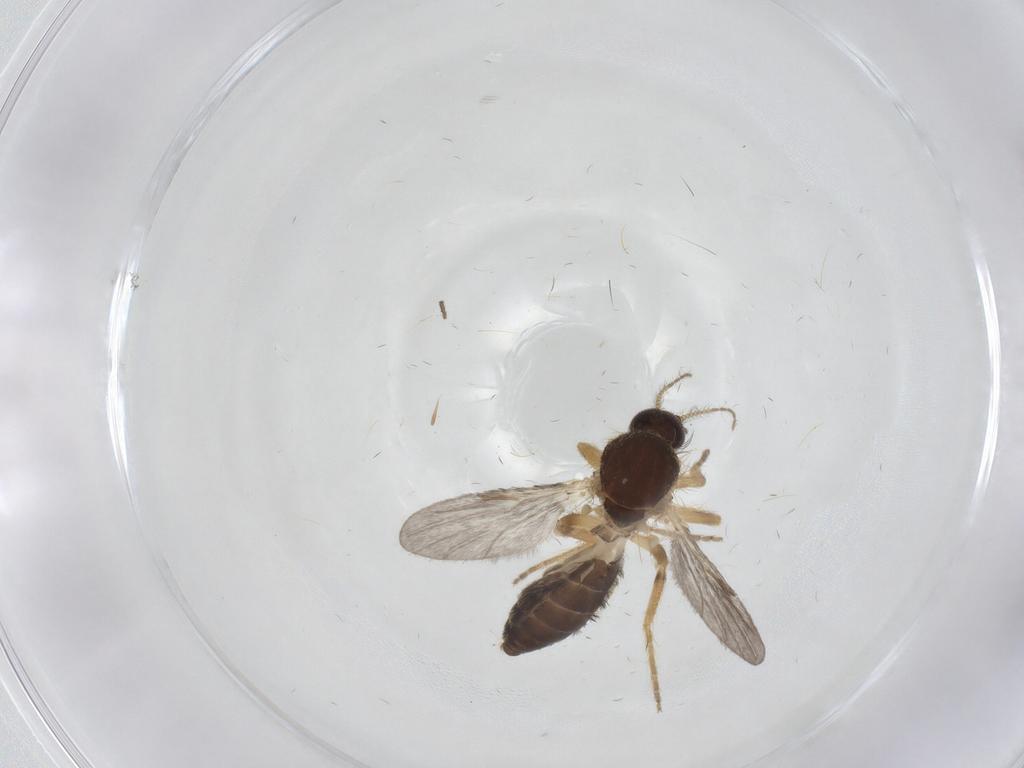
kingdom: Animalia
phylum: Arthropoda
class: Insecta
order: Diptera
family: Ceratopogonidae
